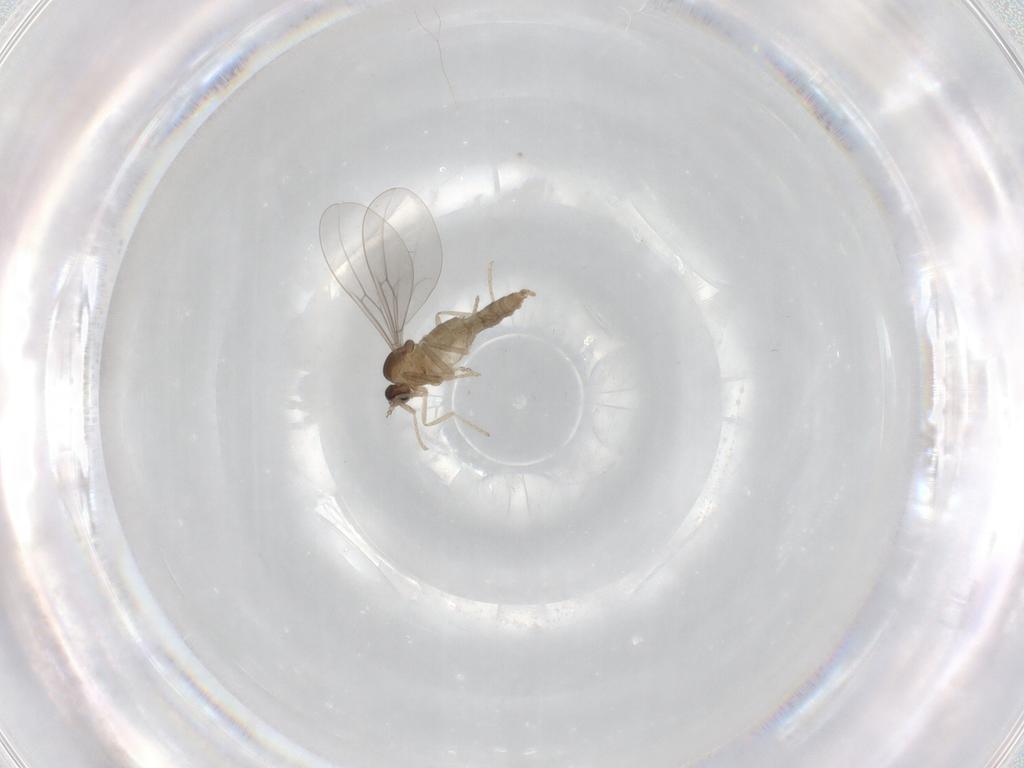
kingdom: Animalia
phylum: Arthropoda
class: Insecta
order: Diptera
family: Cecidomyiidae
